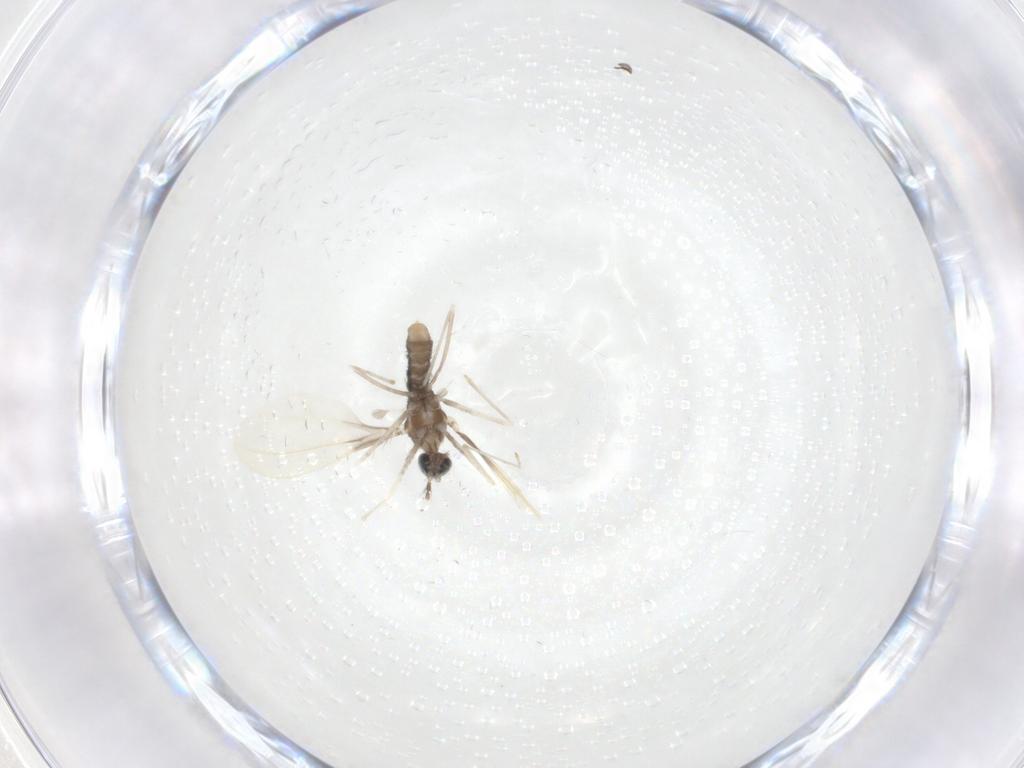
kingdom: Animalia
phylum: Arthropoda
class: Insecta
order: Diptera
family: Cecidomyiidae
